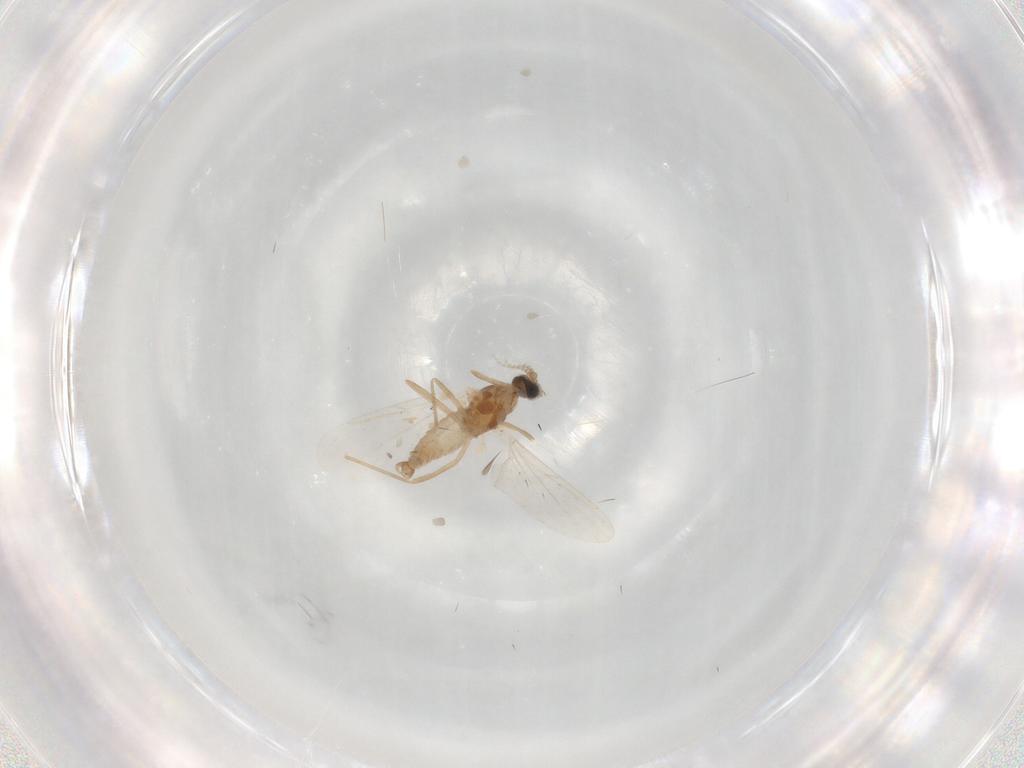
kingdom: Animalia
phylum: Arthropoda
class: Insecta
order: Diptera
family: Cecidomyiidae
